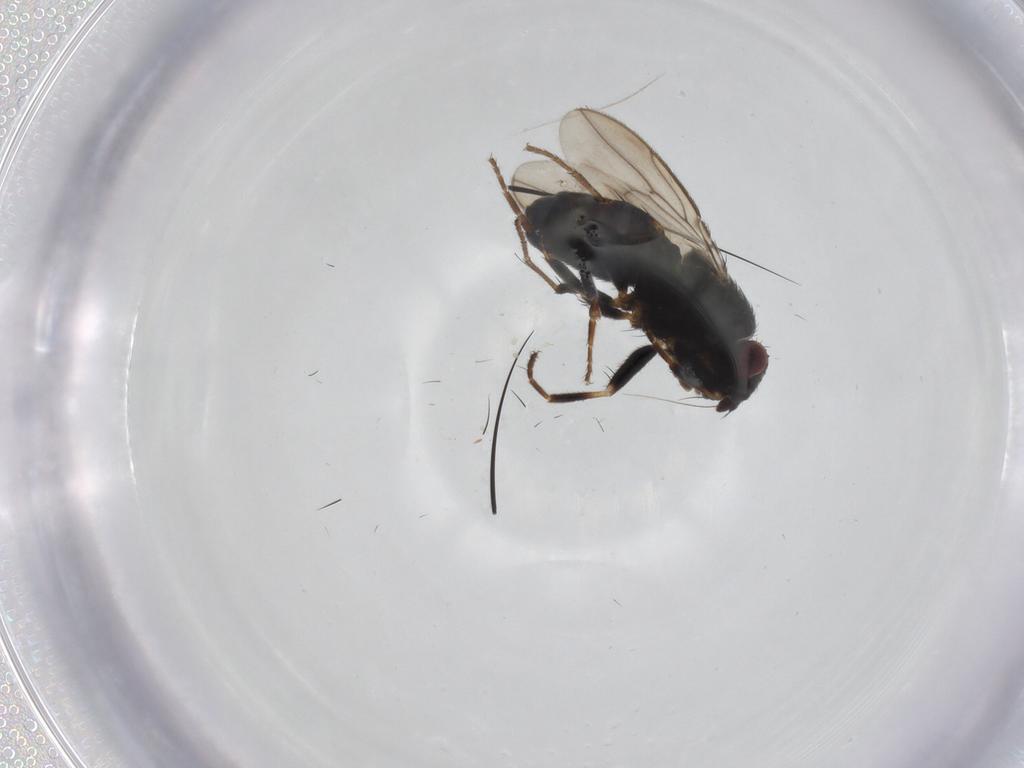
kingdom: Animalia
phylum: Arthropoda
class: Insecta
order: Diptera
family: Sphaeroceridae
